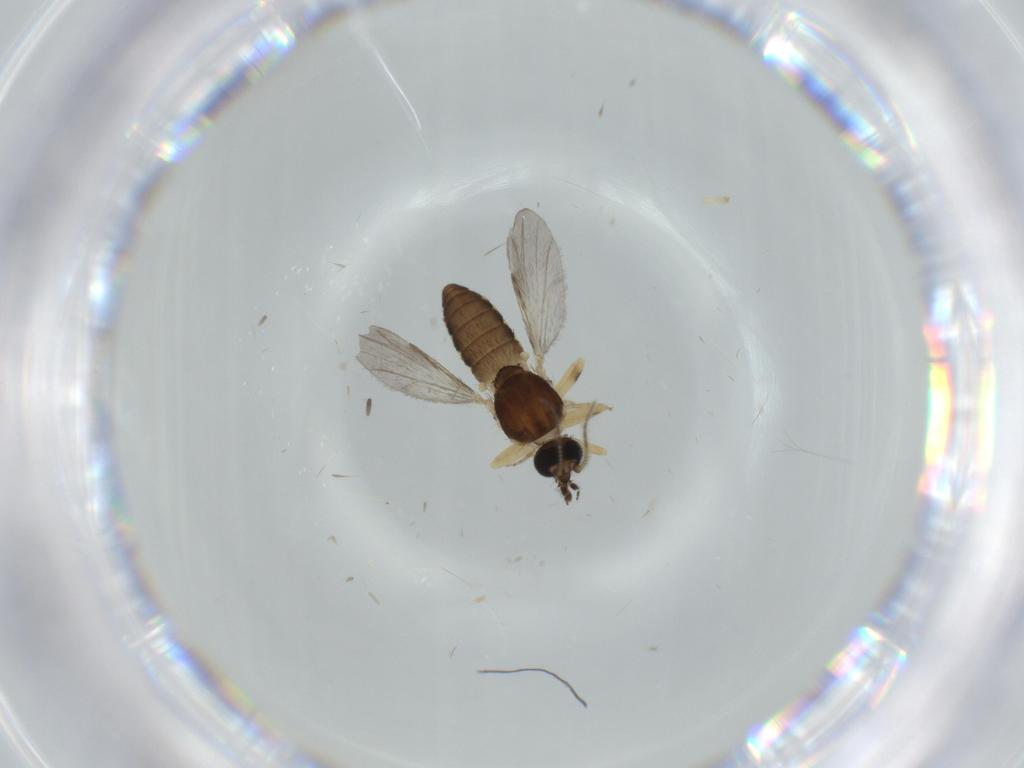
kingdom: Animalia
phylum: Arthropoda
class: Insecta
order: Diptera
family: Ceratopogonidae
